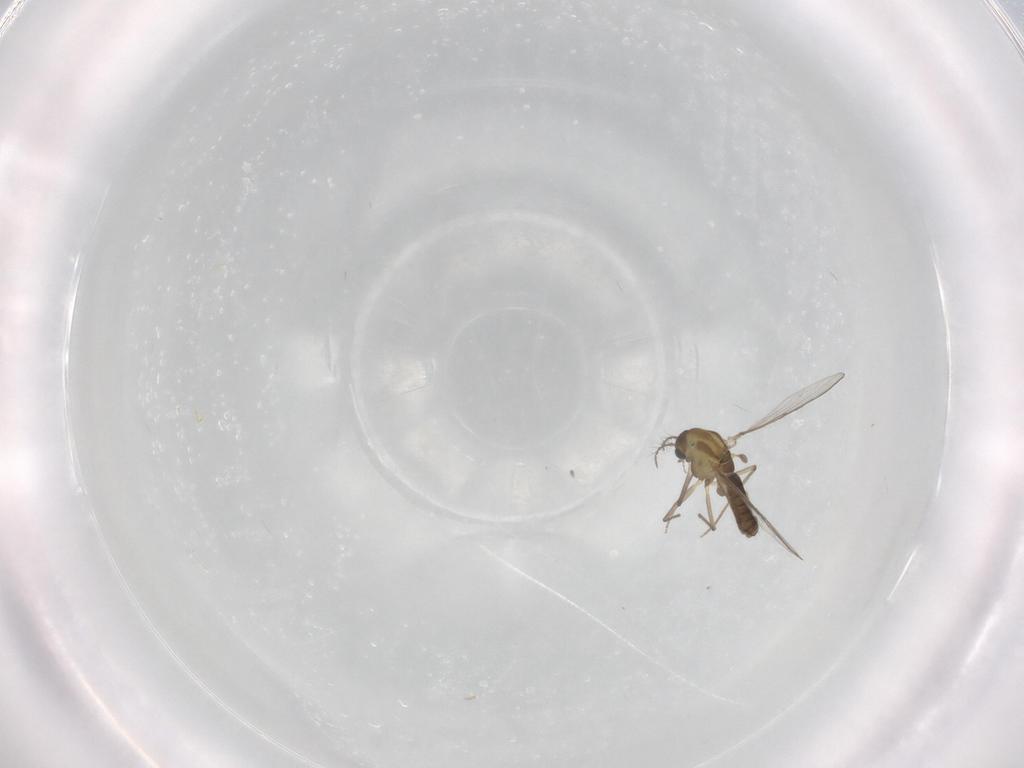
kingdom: Animalia
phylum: Arthropoda
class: Insecta
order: Diptera
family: Chironomidae
